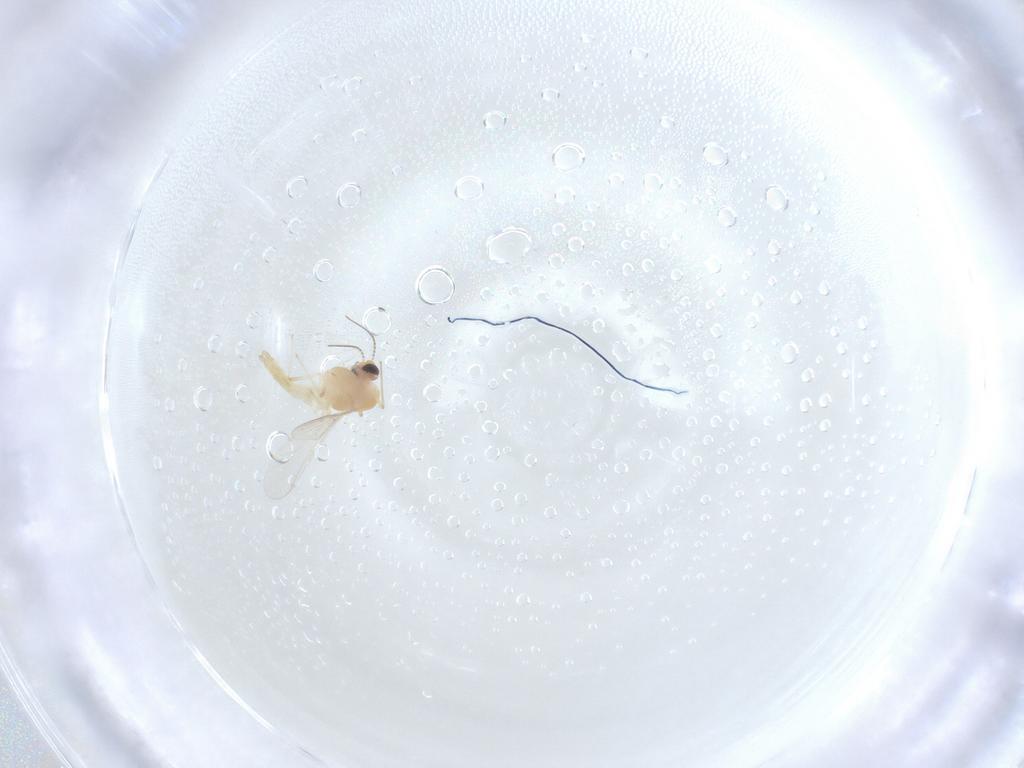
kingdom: Animalia
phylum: Arthropoda
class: Insecta
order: Diptera
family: Chironomidae
